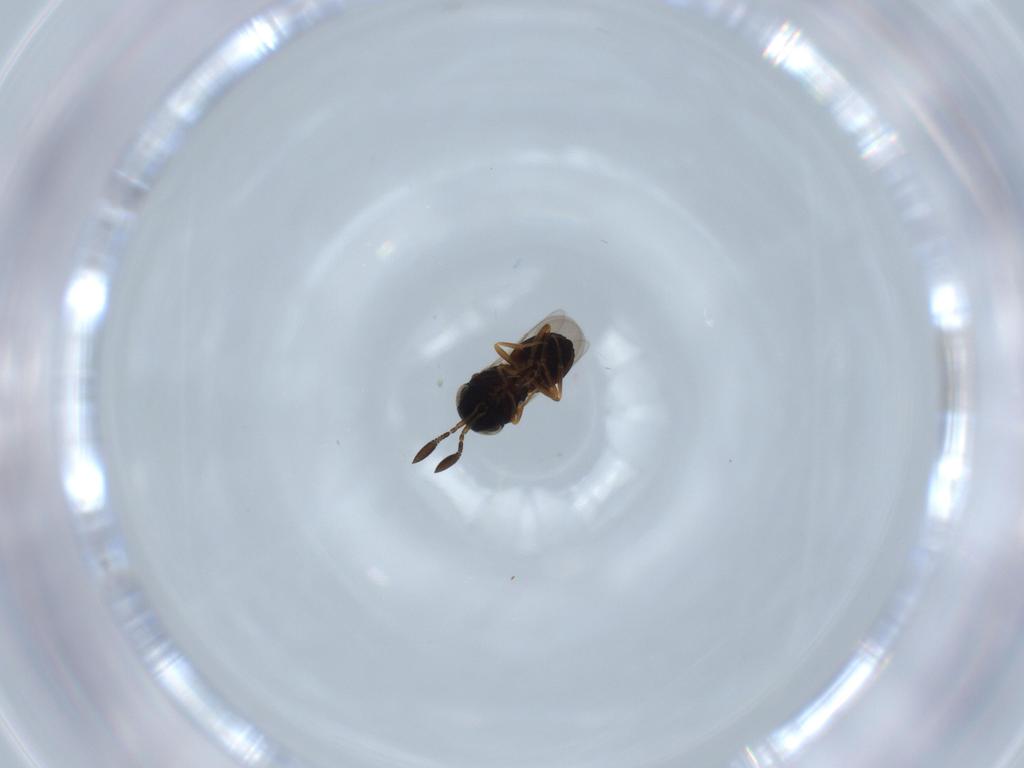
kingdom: Animalia
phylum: Arthropoda
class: Insecta
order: Coleoptera
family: Curculionidae
